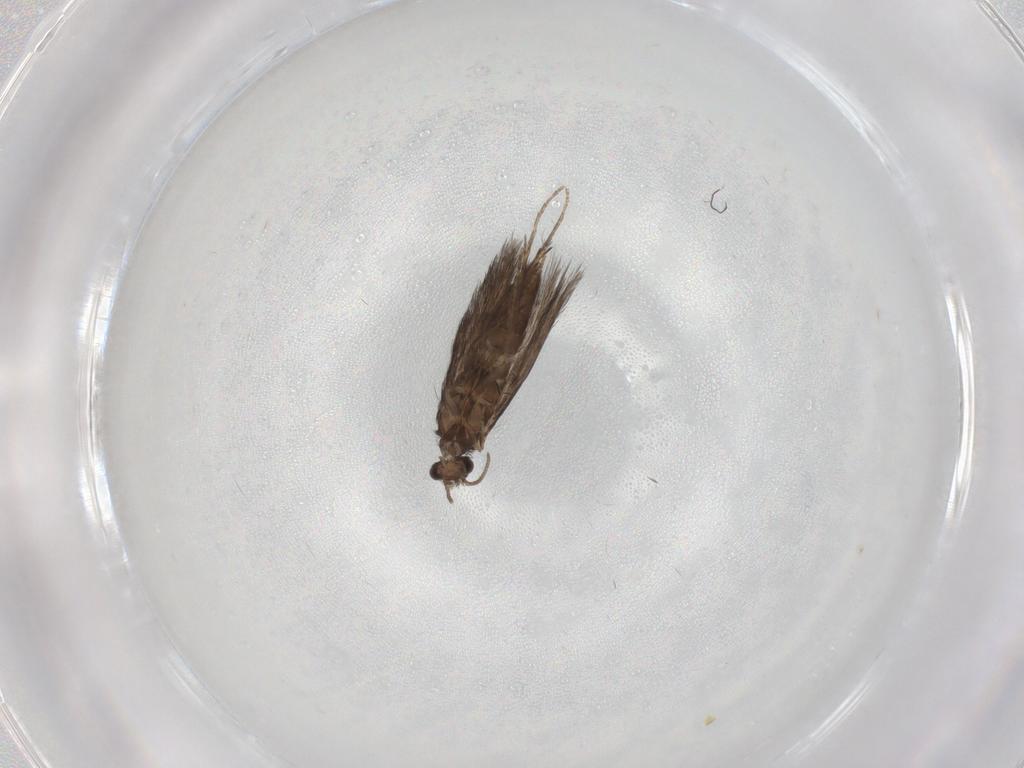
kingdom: Animalia
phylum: Arthropoda
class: Insecta
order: Trichoptera
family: Hydroptilidae
